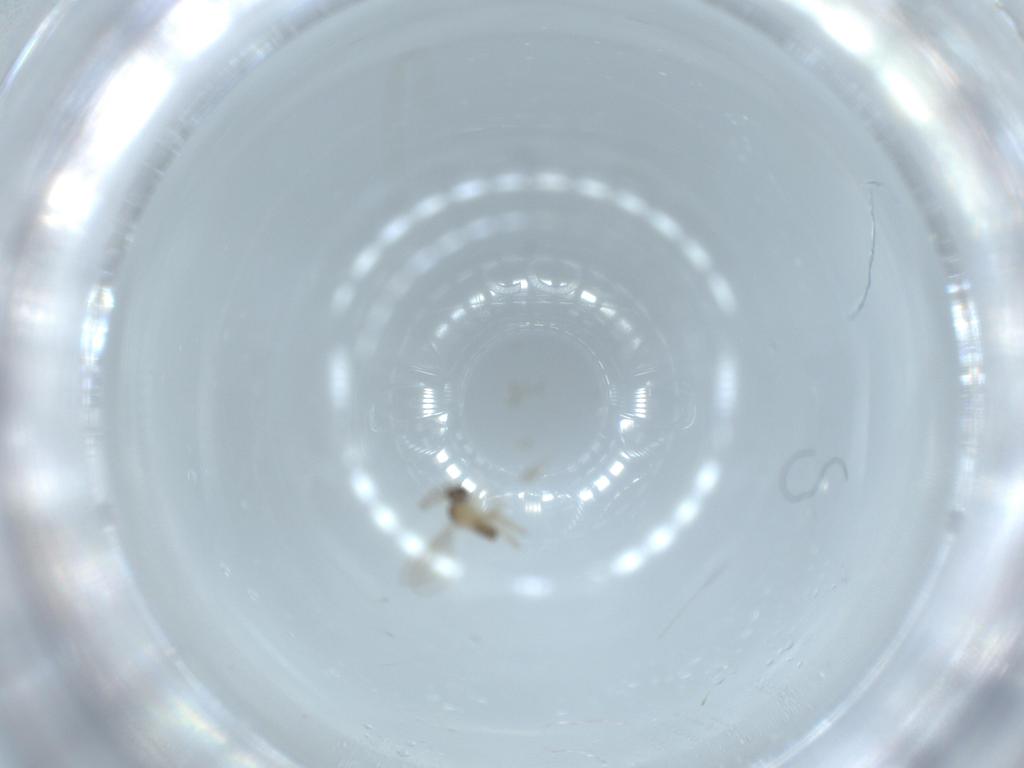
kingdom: Animalia
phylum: Arthropoda
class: Insecta
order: Diptera
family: Cecidomyiidae
